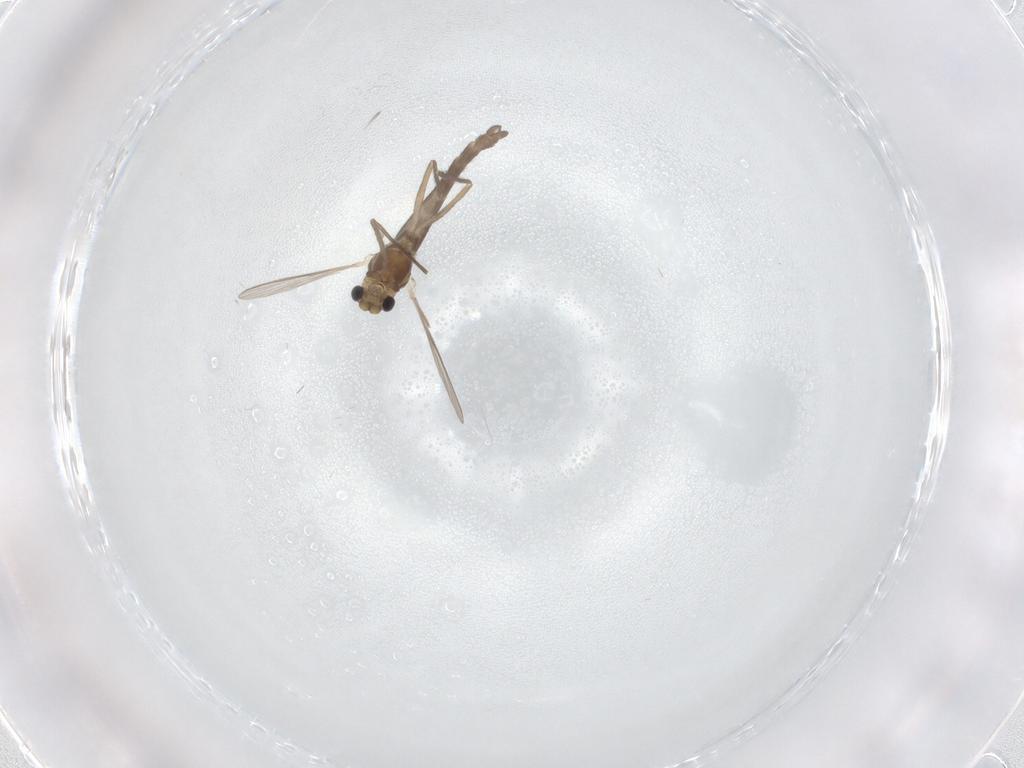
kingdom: Animalia
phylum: Arthropoda
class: Insecta
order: Diptera
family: Chironomidae
